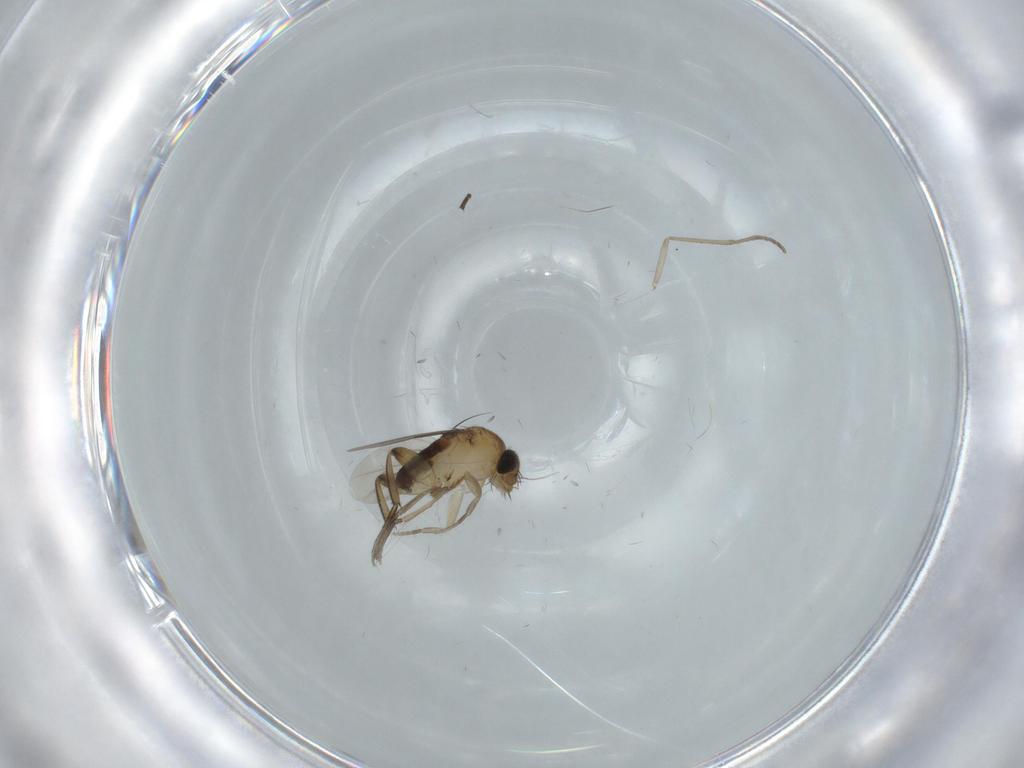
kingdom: Animalia
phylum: Arthropoda
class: Insecta
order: Diptera
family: Phoridae
